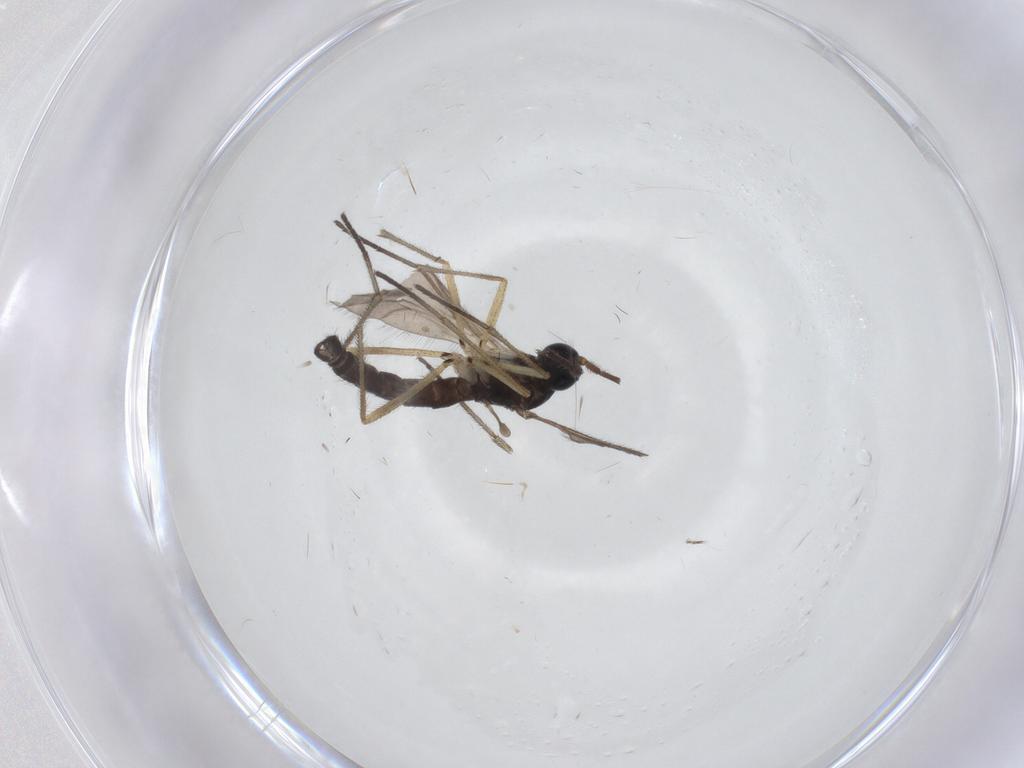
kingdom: Animalia
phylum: Arthropoda
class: Insecta
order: Diptera
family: Sciaridae
